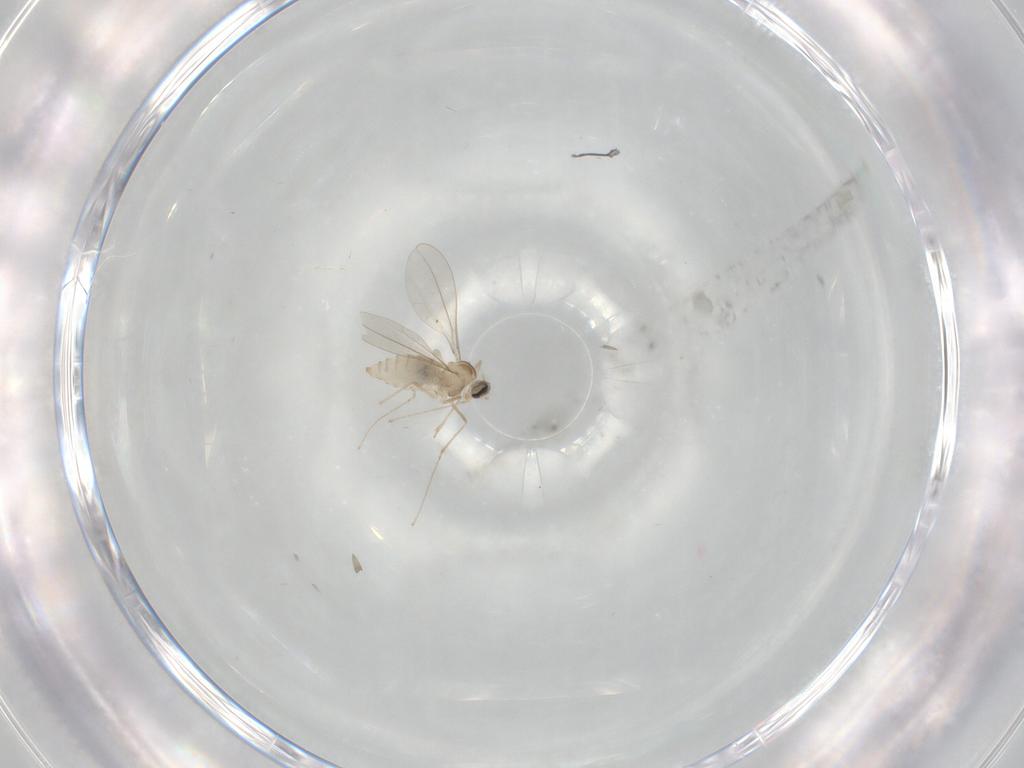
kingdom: Animalia
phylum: Arthropoda
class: Insecta
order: Diptera
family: Cecidomyiidae
